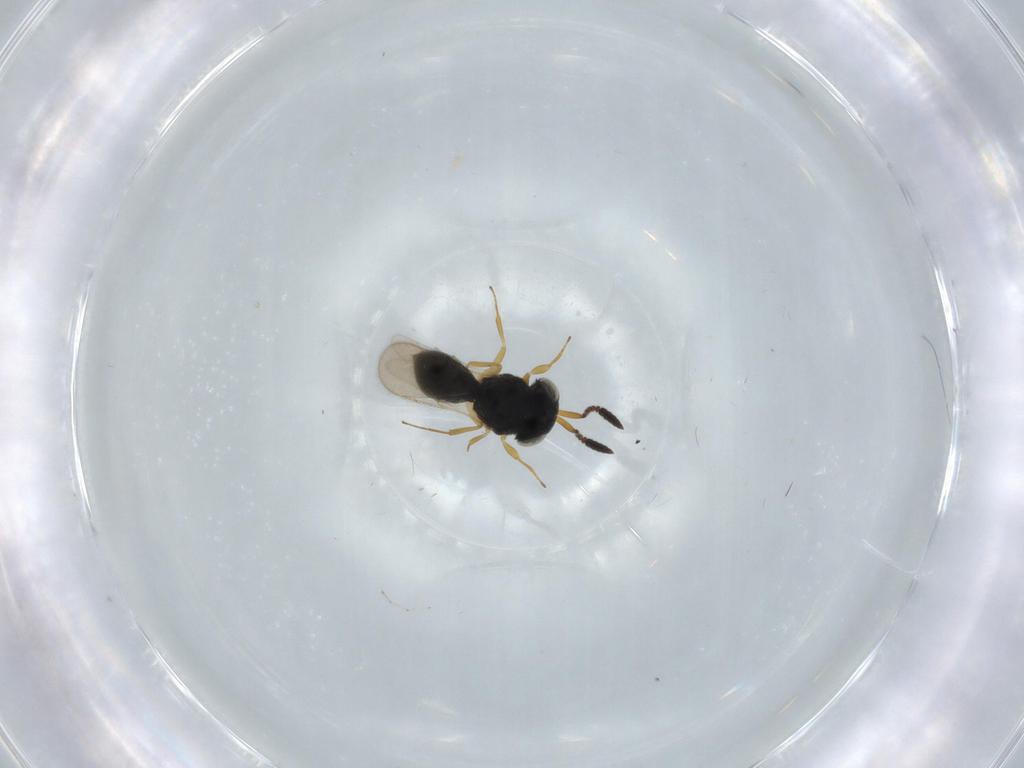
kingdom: Animalia
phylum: Arthropoda
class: Insecta
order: Hymenoptera
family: Scelionidae
